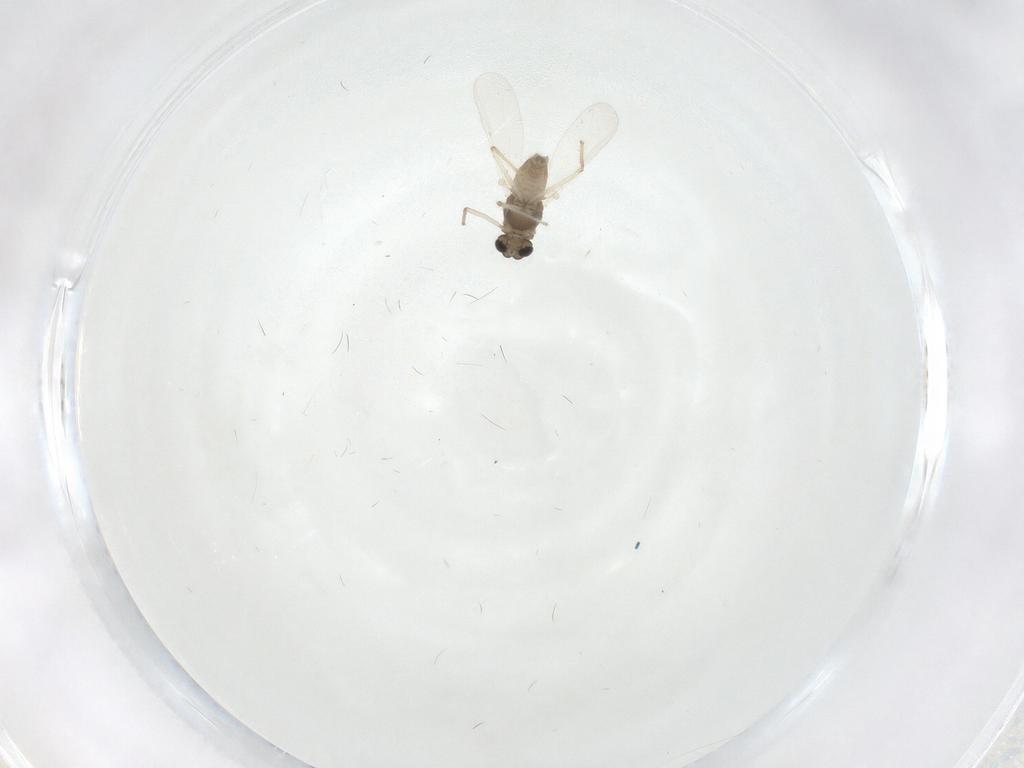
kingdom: Animalia
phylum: Arthropoda
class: Insecta
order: Diptera
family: Chironomidae
